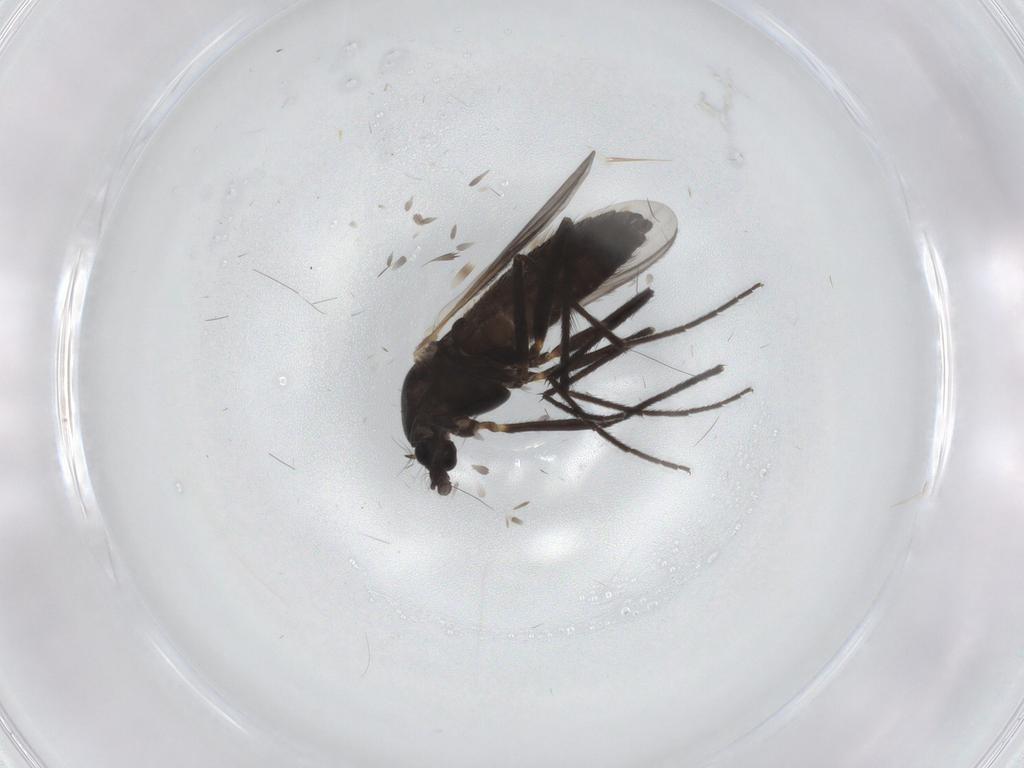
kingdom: Animalia
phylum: Arthropoda
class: Insecta
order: Diptera
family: Chironomidae
